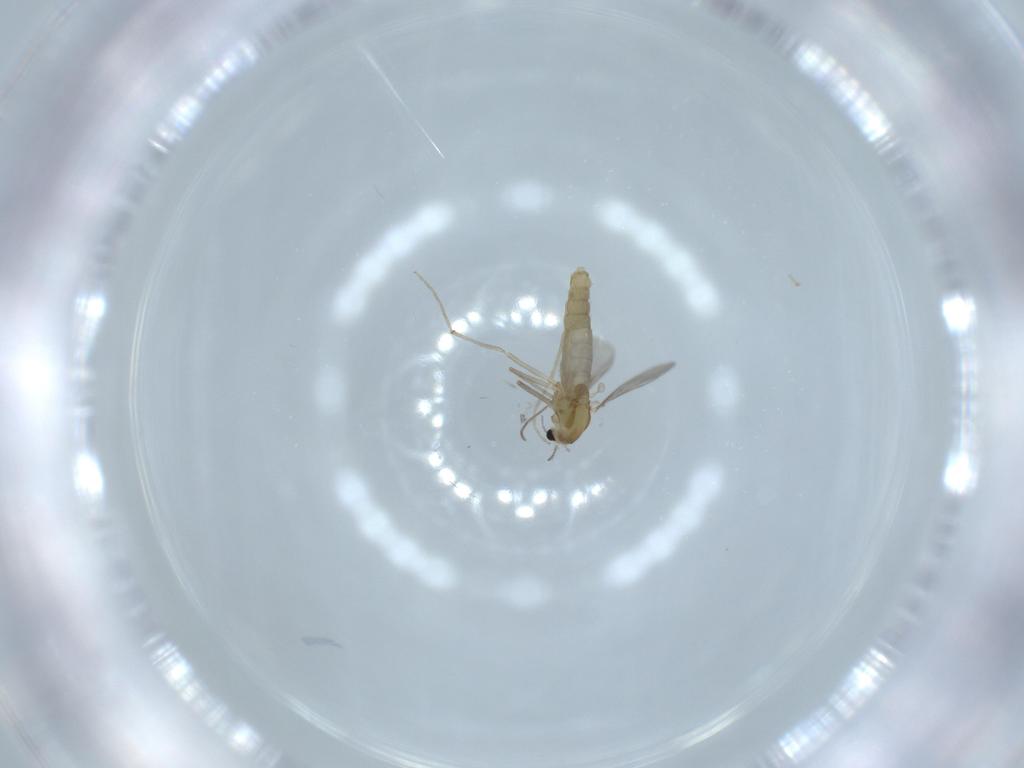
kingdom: Animalia
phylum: Arthropoda
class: Insecta
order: Diptera
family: Chironomidae
